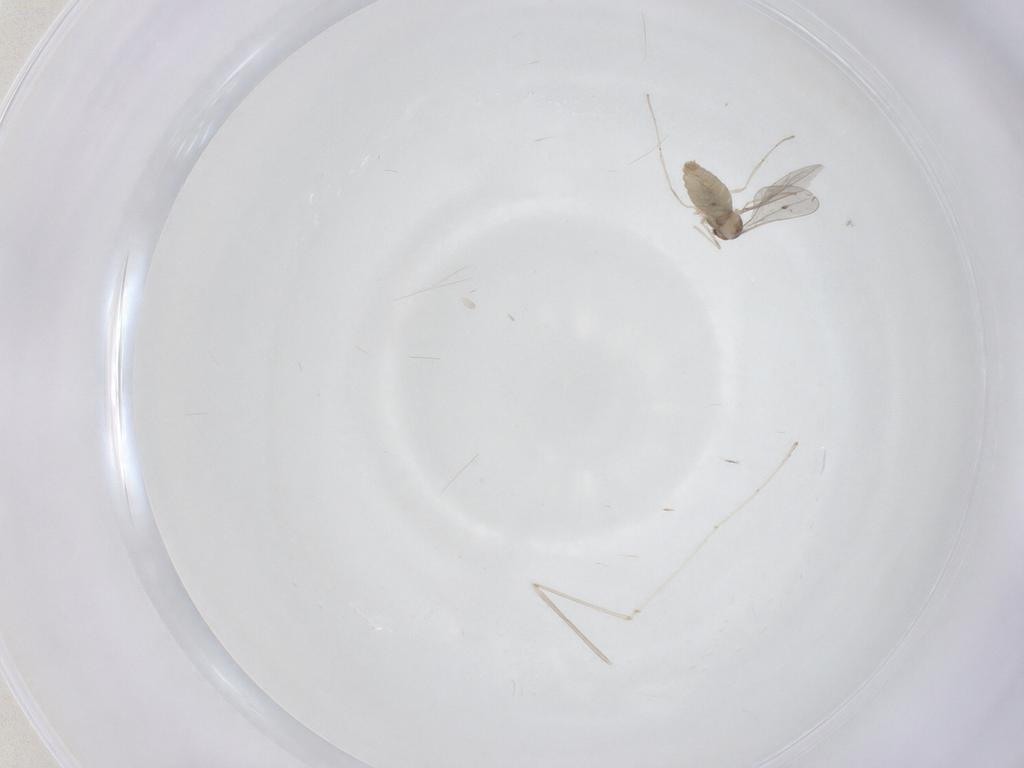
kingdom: Animalia
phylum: Arthropoda
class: Insecta
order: Diptera
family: Cecidomyiidae
